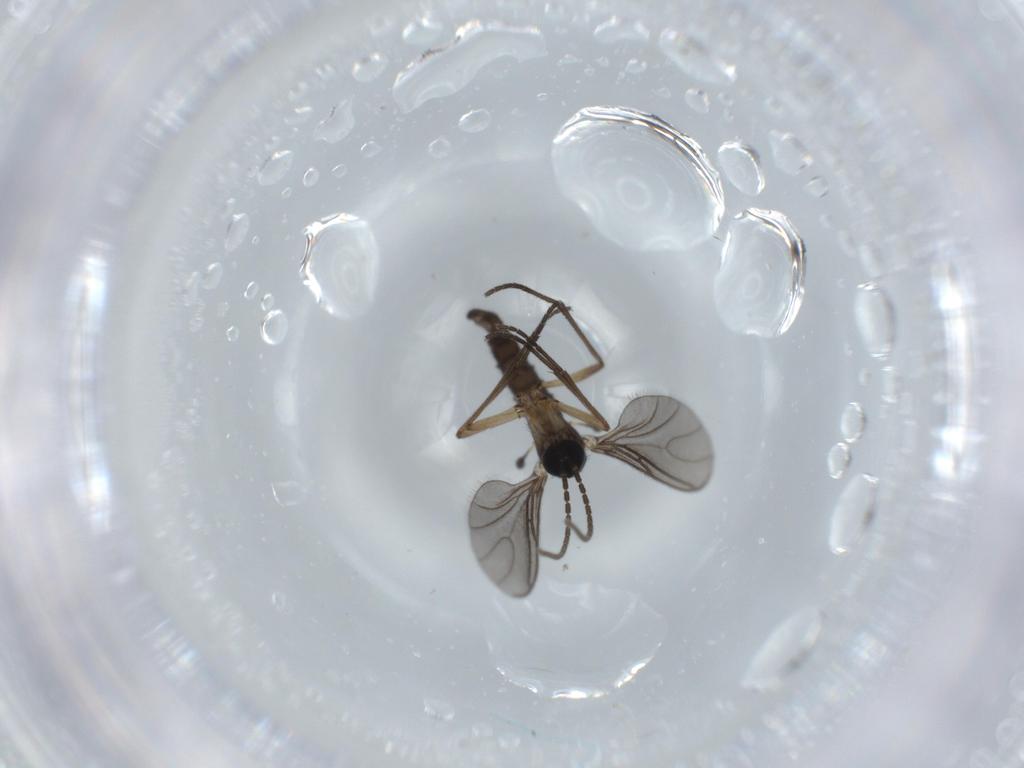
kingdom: Animalia
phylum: Arthropoda
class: Insecta
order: Diptera
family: Sciaridae
